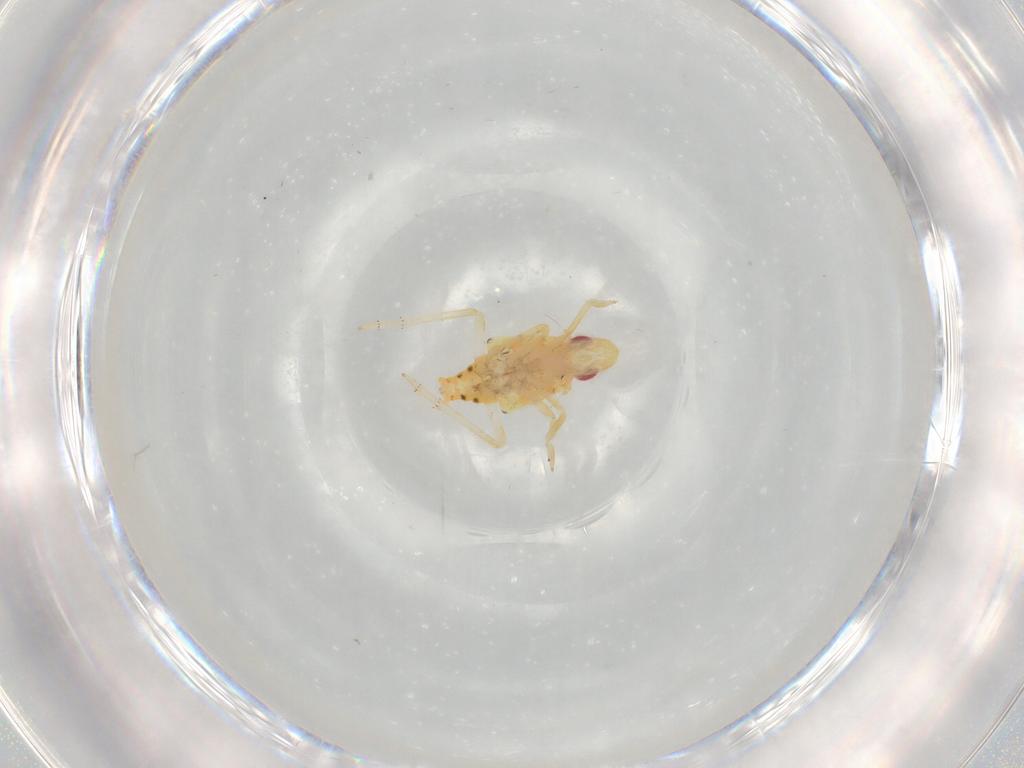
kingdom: Animalia
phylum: Arthropoda
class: Insecta
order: Hemiptera
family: Tropiduchidae
